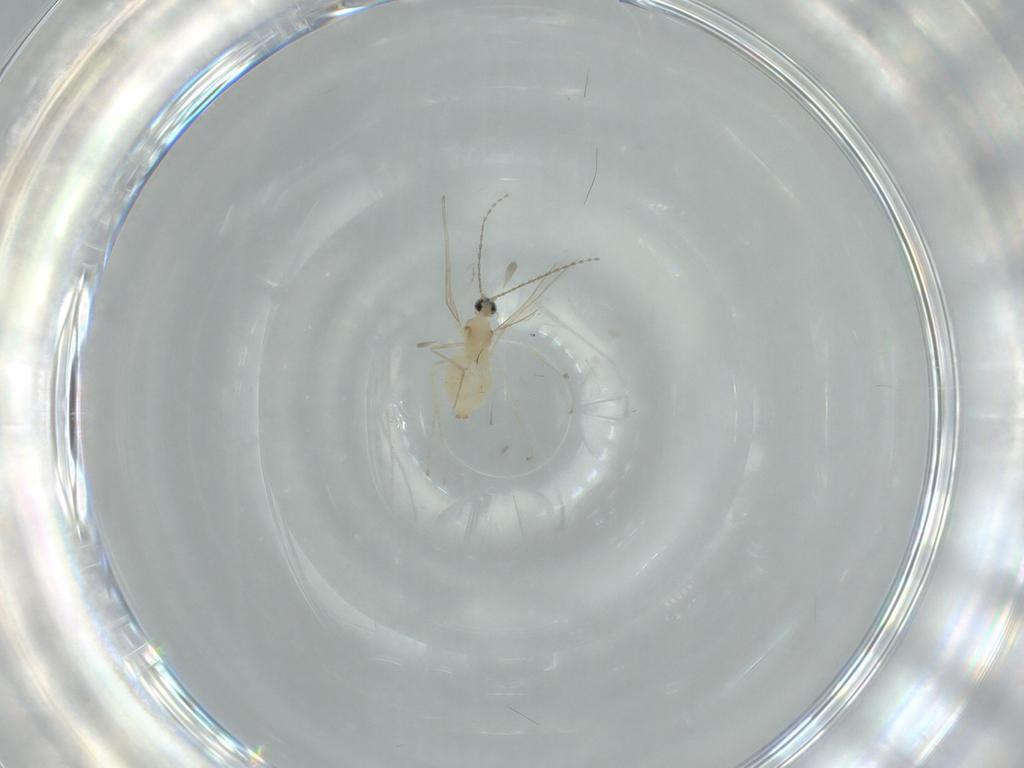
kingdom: Animalia
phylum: Arthropoda
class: Insecta
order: Diptera
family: Cecidomyiidae
